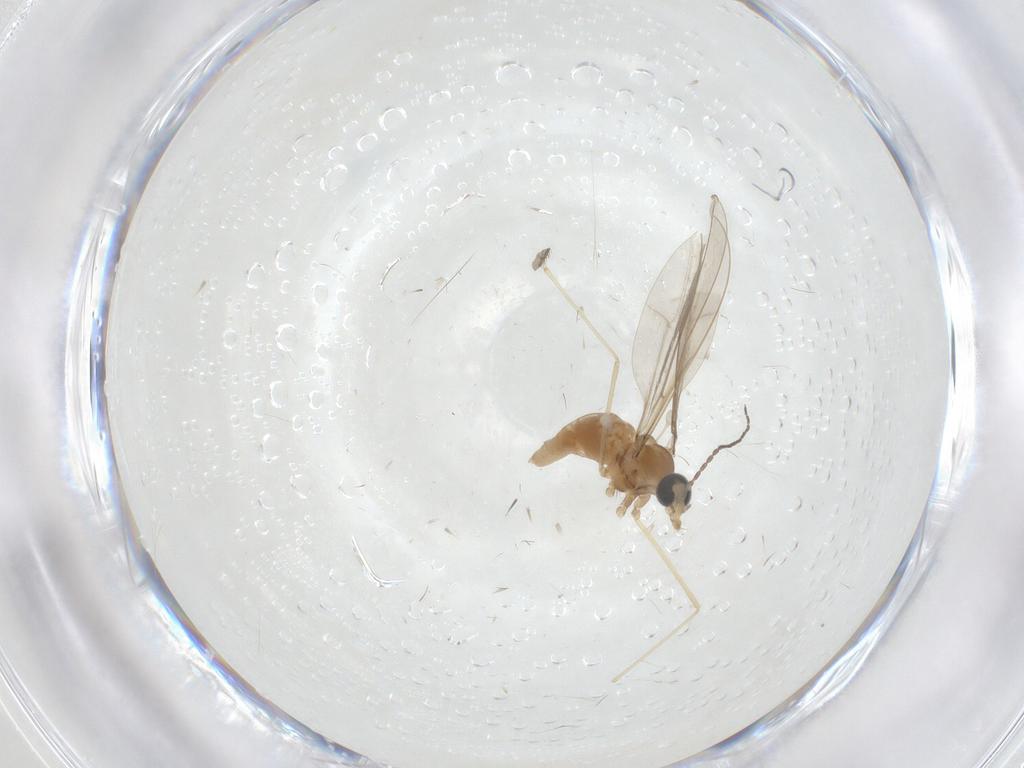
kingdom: Animalia
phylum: Arthropoda
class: Insecta
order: Diptera
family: Cecidomyiidae
